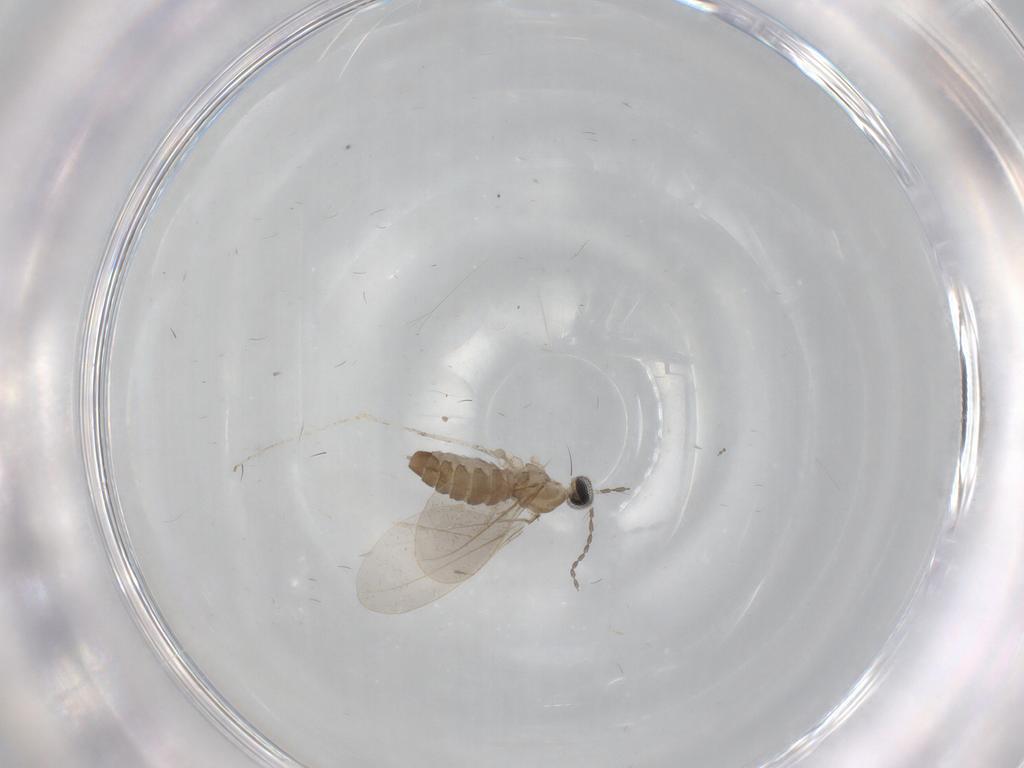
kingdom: Animalia
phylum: Arthropoda
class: Insecta
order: Diptera
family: Cecidomyiidae
